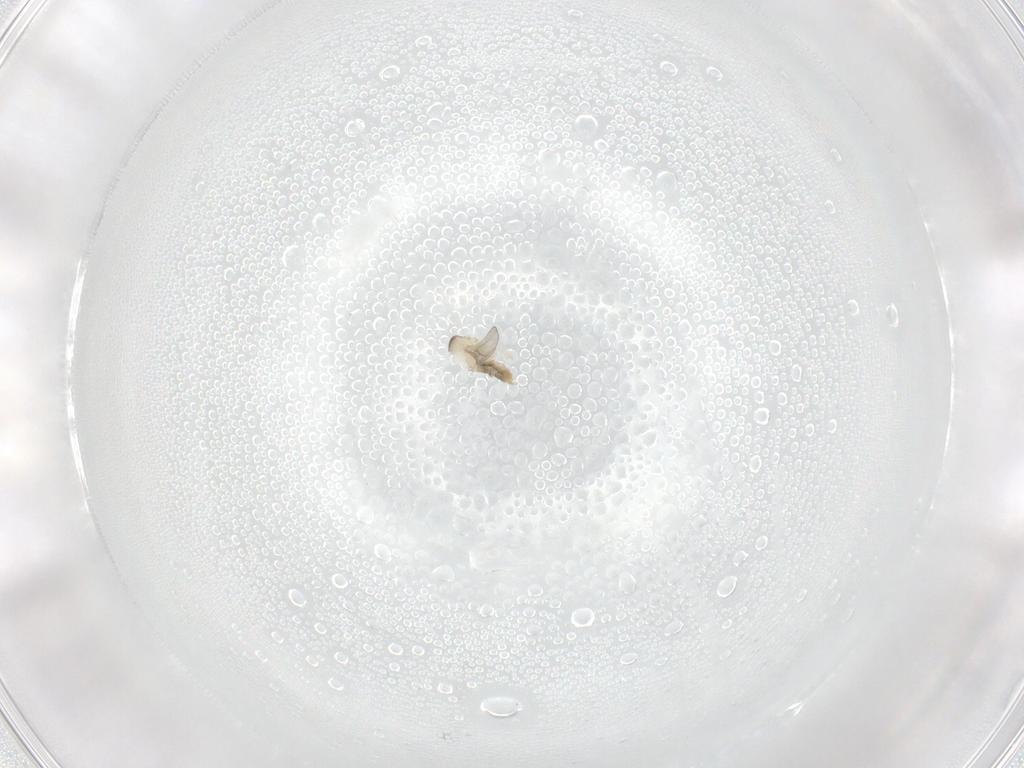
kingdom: Animalia
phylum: Arthropoda
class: Insecta
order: Diptera
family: Cecidomyiidae
